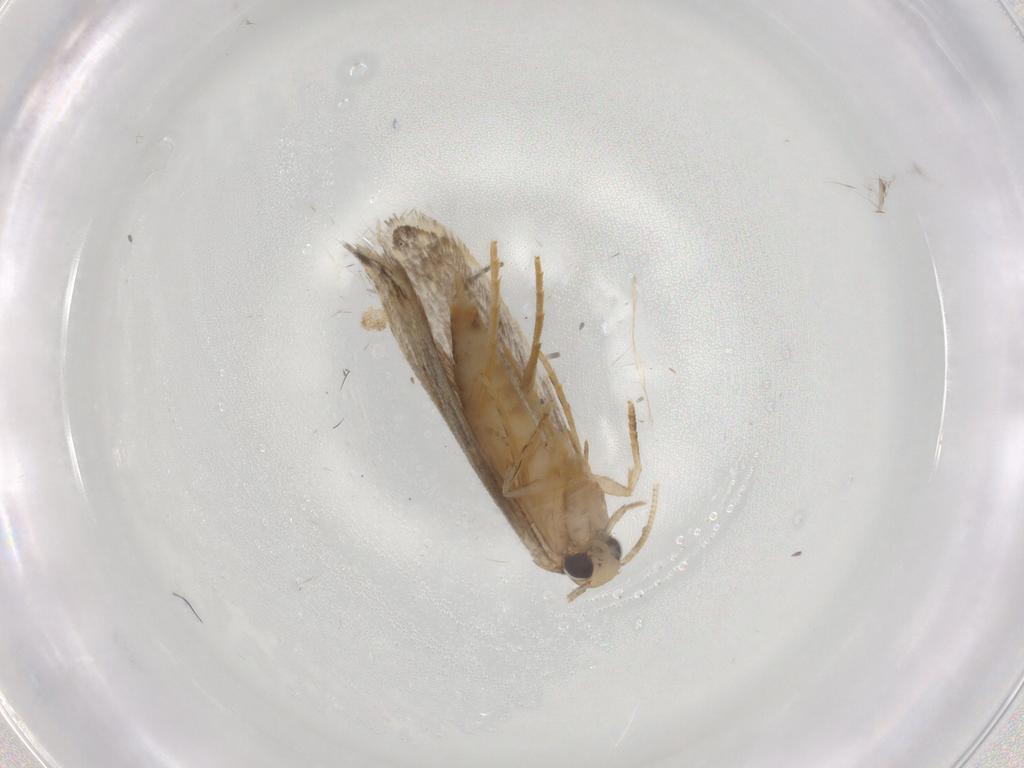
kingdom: Animalia
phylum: Arthropoda
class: Insecta
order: Lepidoptera
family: Tineidae
